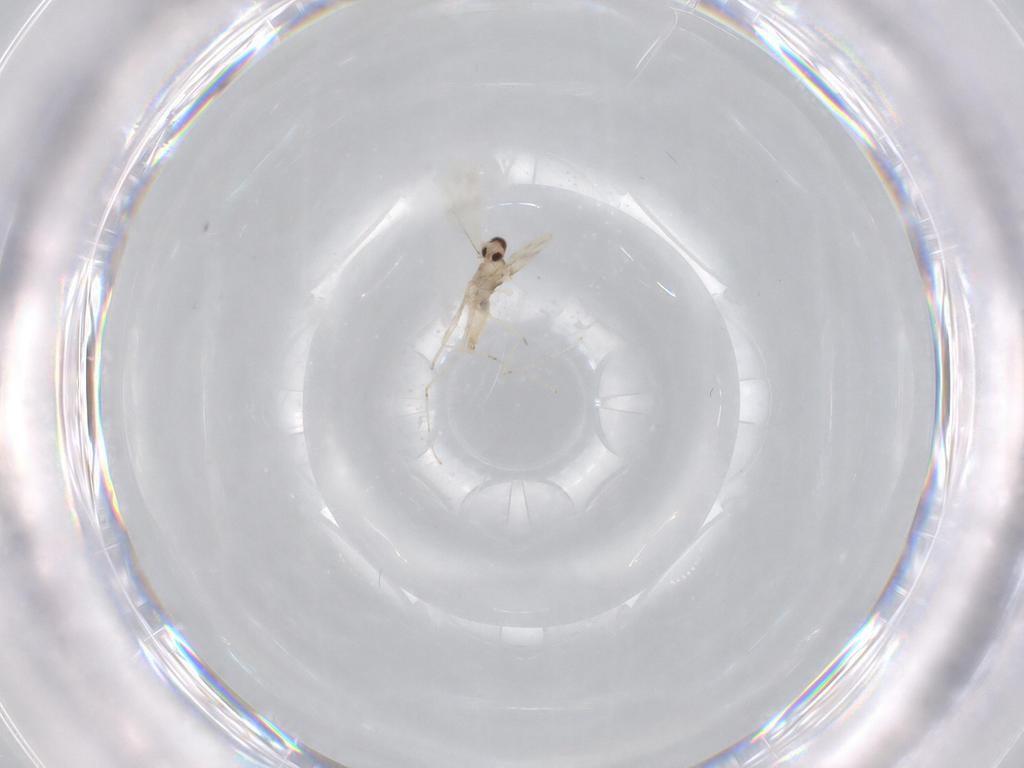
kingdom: Animalia
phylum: Arthropoda
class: Insecta
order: Diptera
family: Cecidomyiidae
